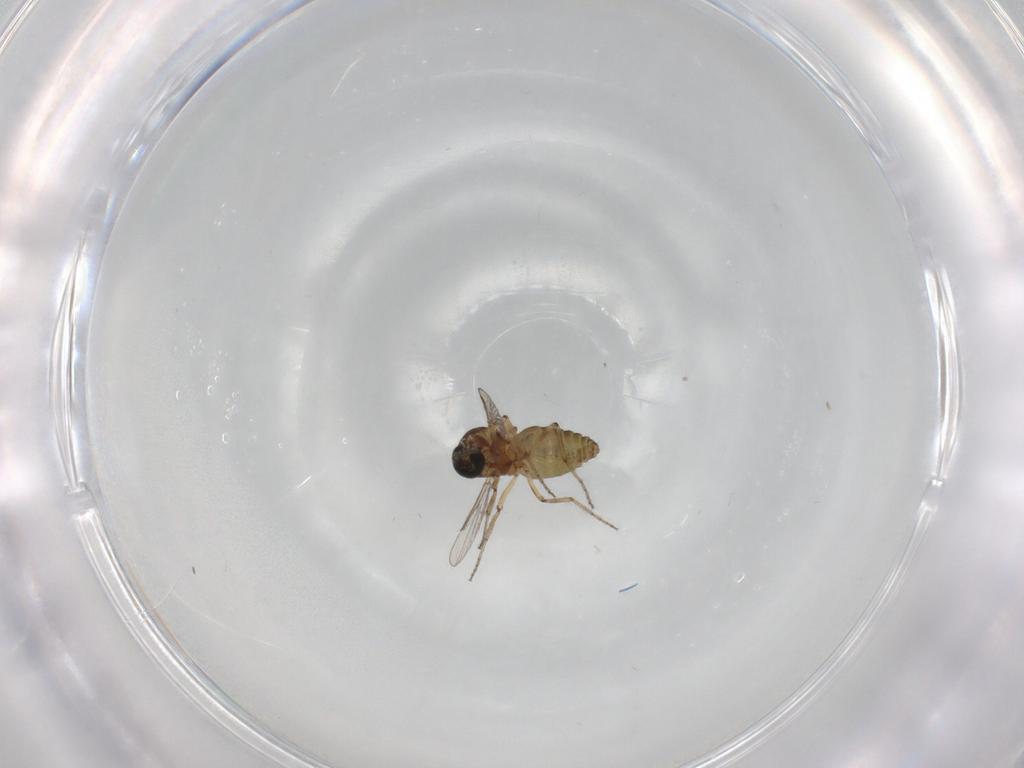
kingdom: Animalia
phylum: Arthropoda
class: Insecta
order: Diptera
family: Ceratopogonidae
